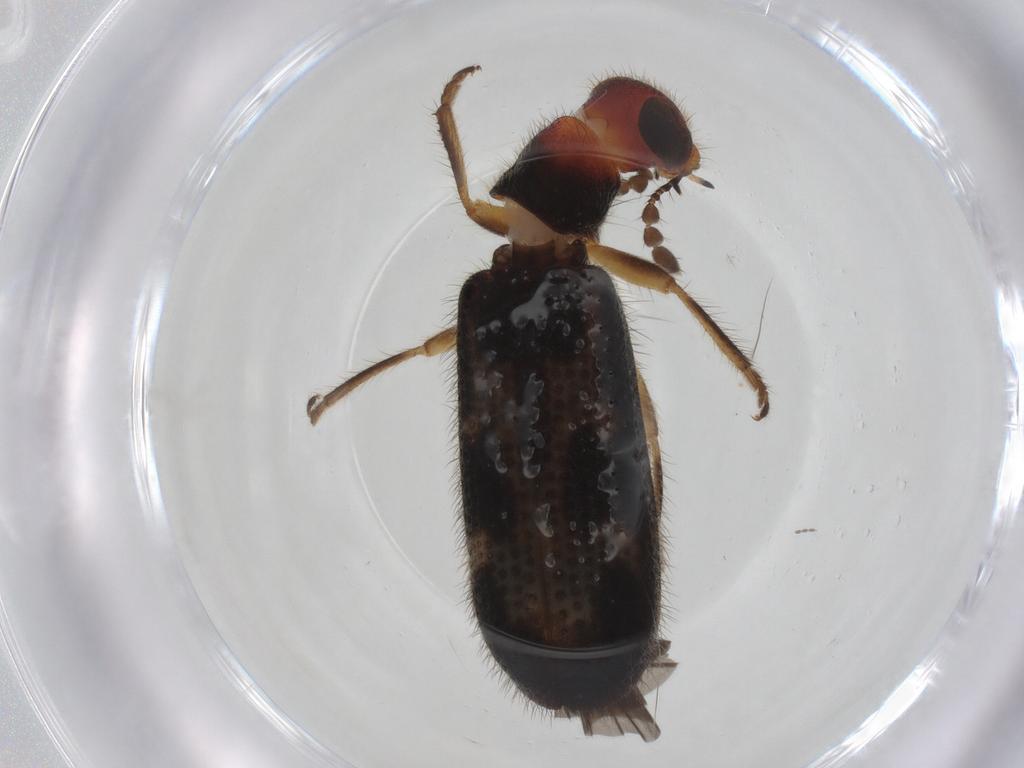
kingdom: Animalia
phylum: Arthropoda
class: Insecta
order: Coleoptera
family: Cleridae
